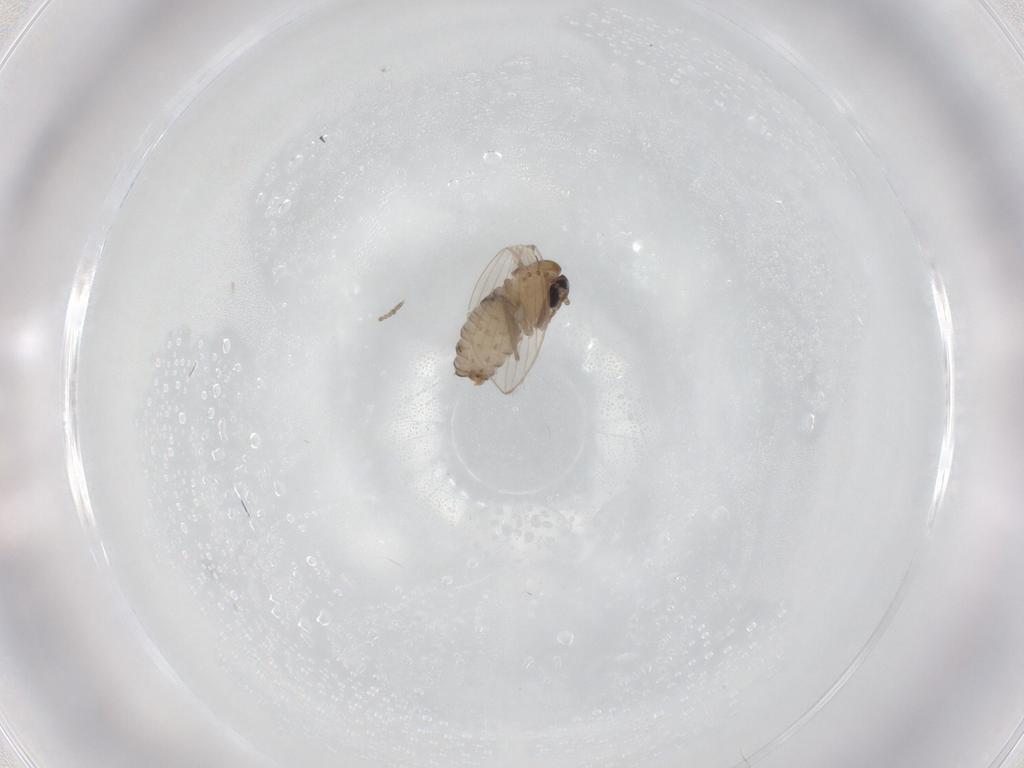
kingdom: Animalia
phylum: Arthropoda
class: Insecta
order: Diptera
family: Psychodidae
